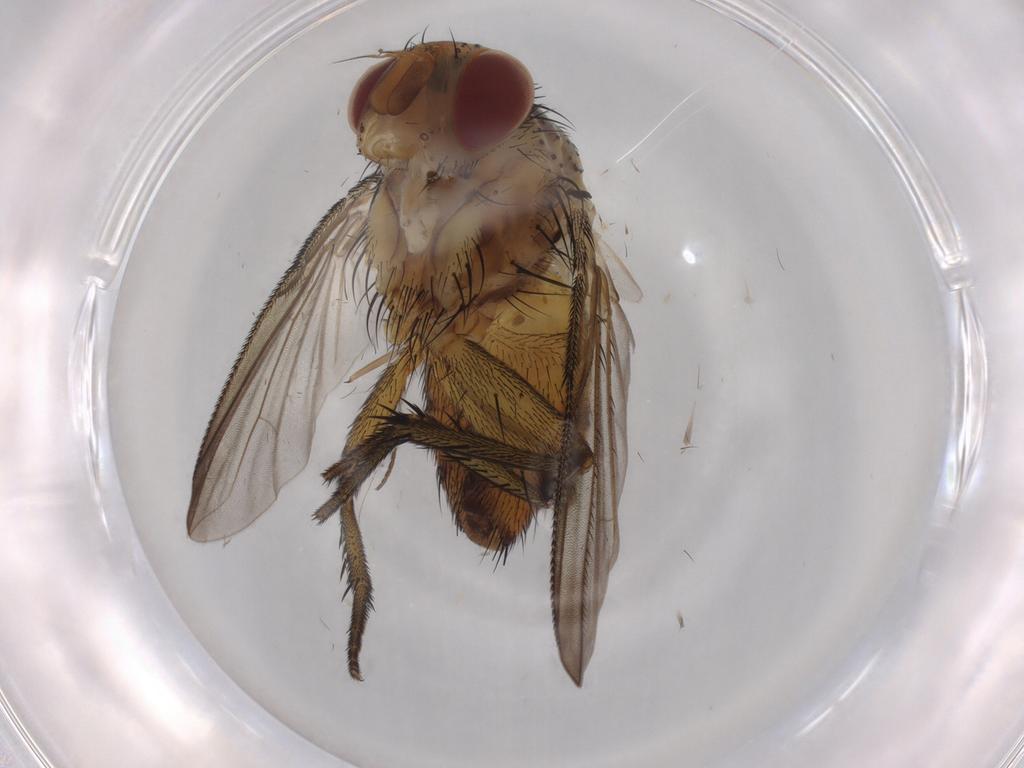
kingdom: Animalia
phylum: Arthropoda
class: Insecta
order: Diptera
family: Tachinidae
